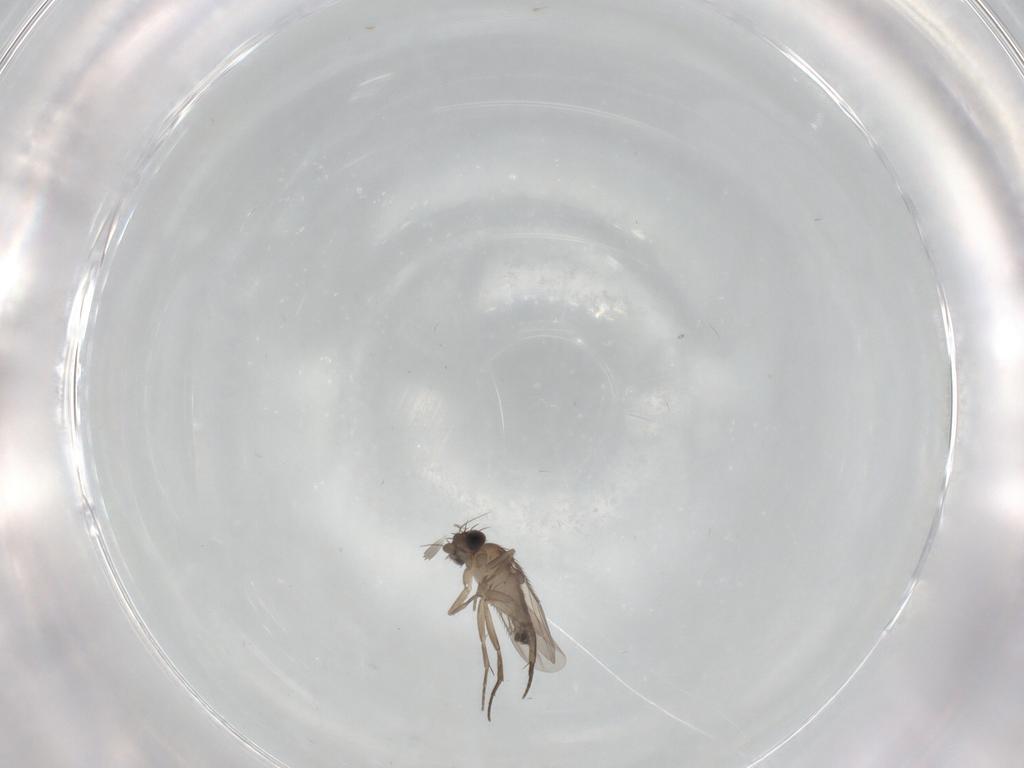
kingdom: Animalia
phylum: Arthropoda
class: Insecta
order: Diptera
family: Phoridae
